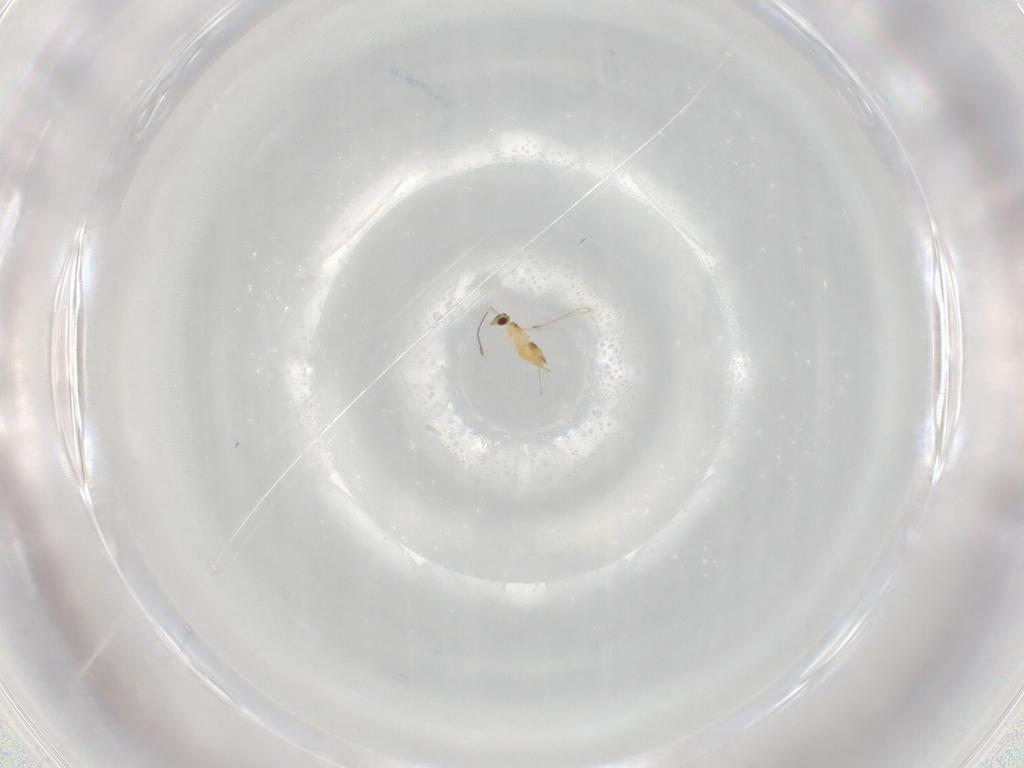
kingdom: Animalia
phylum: Arthropoda
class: Insecta
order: Hymenoptera
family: Mymaridae
